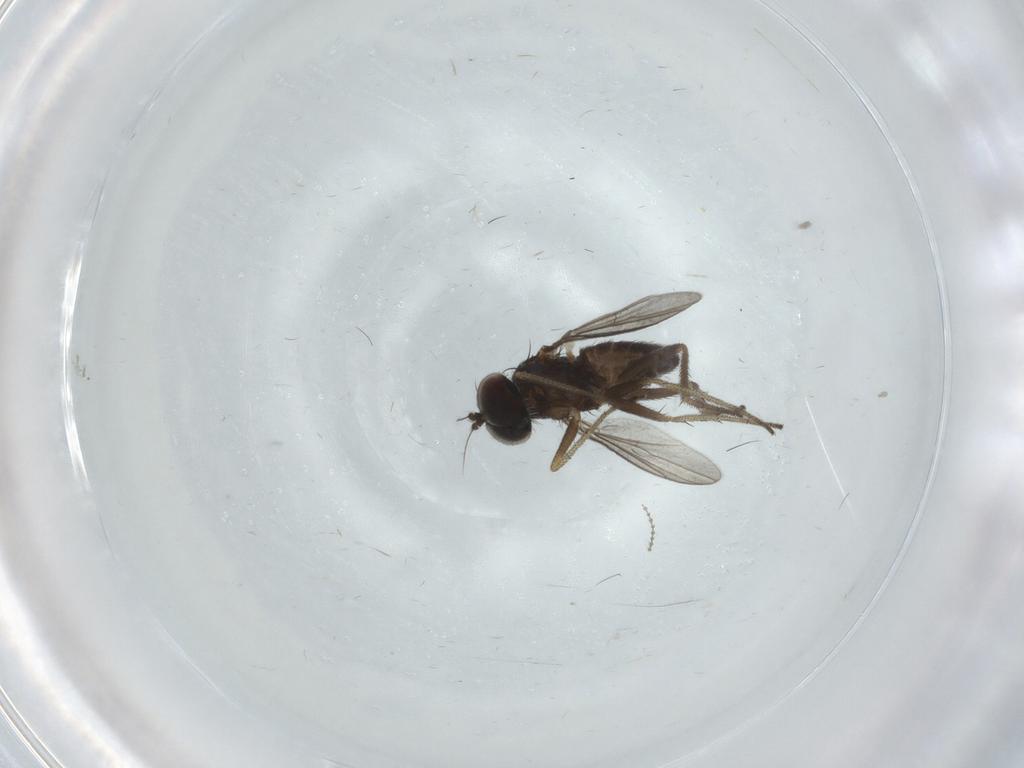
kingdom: Animalia
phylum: Arthropoda
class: Insecta
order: Diptera
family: Dolichopodidae
